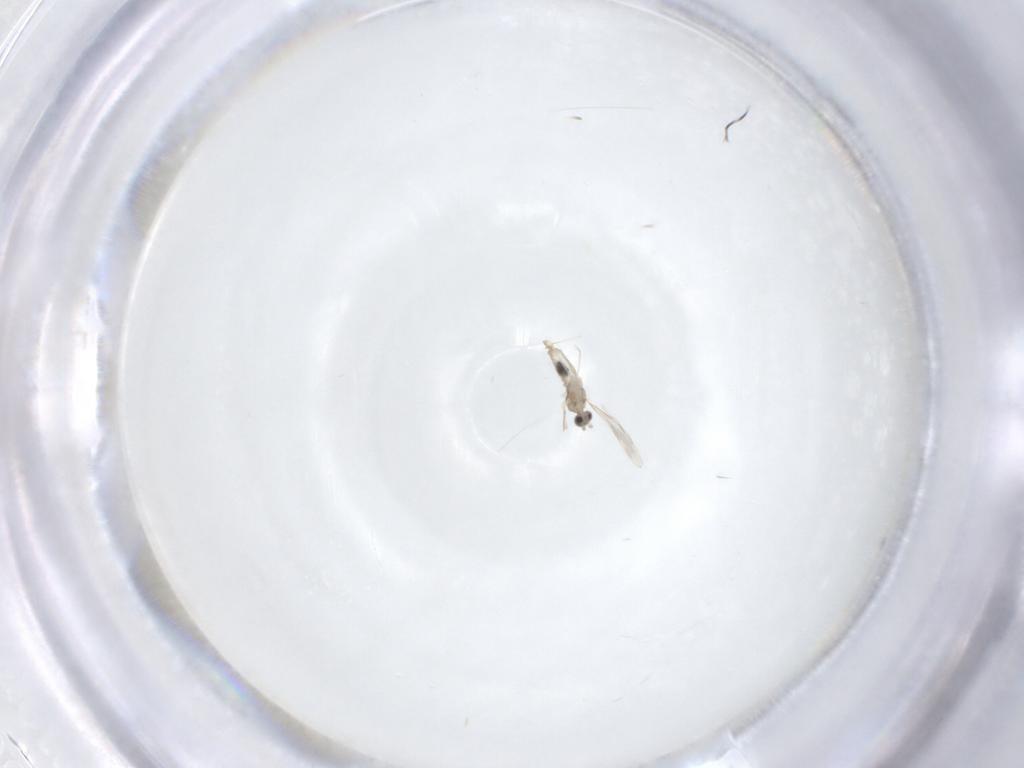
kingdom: Animalia
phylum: Arthropoda
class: Insecta
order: Diptera
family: Cecidomyiidae
